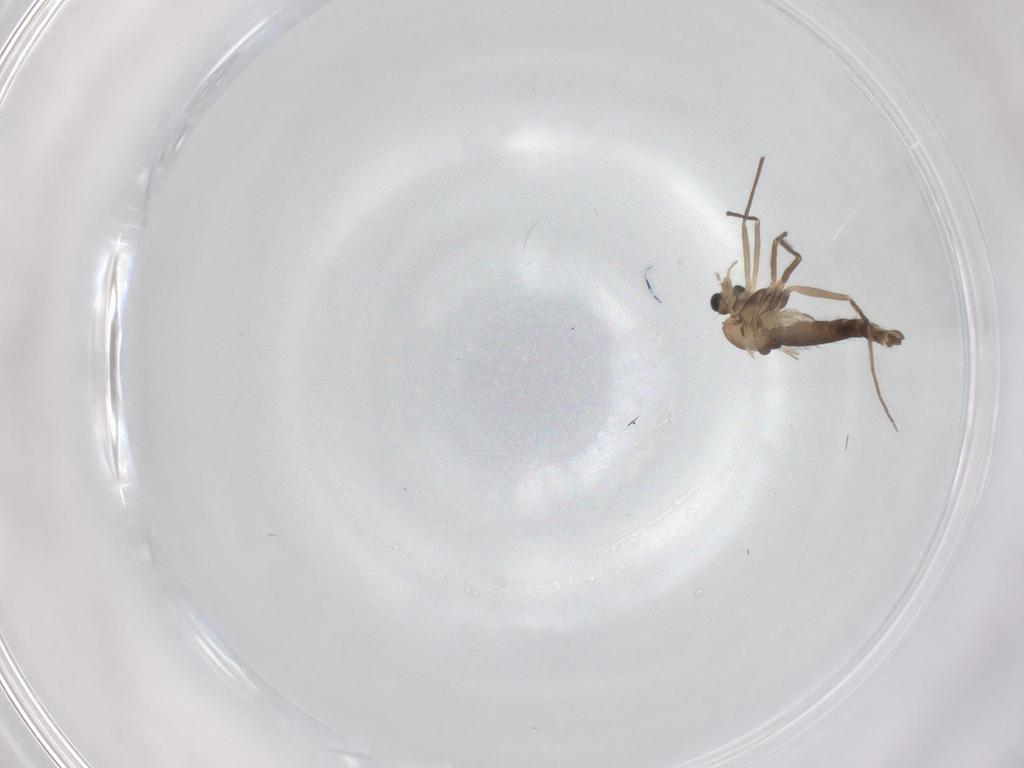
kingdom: Animalia
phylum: Arthropoda
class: Insecta
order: Diptera
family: Chironomidae
